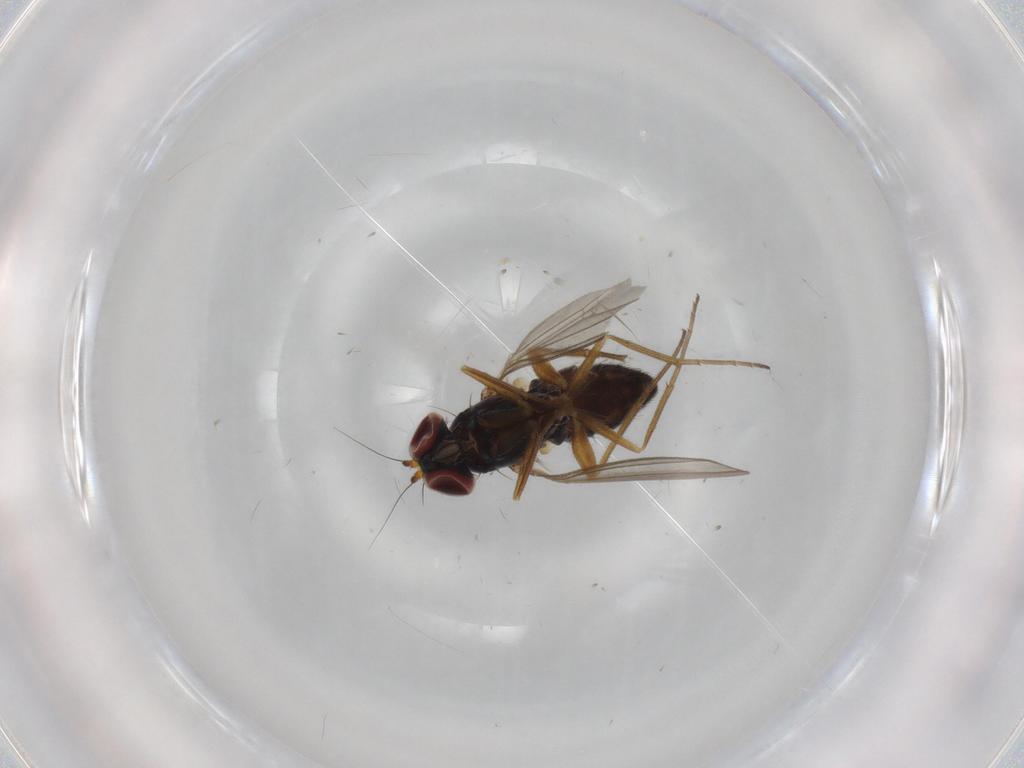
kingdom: Animalia
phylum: Arthropoda
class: Insecta
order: Diptera
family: Dolichopodidae
